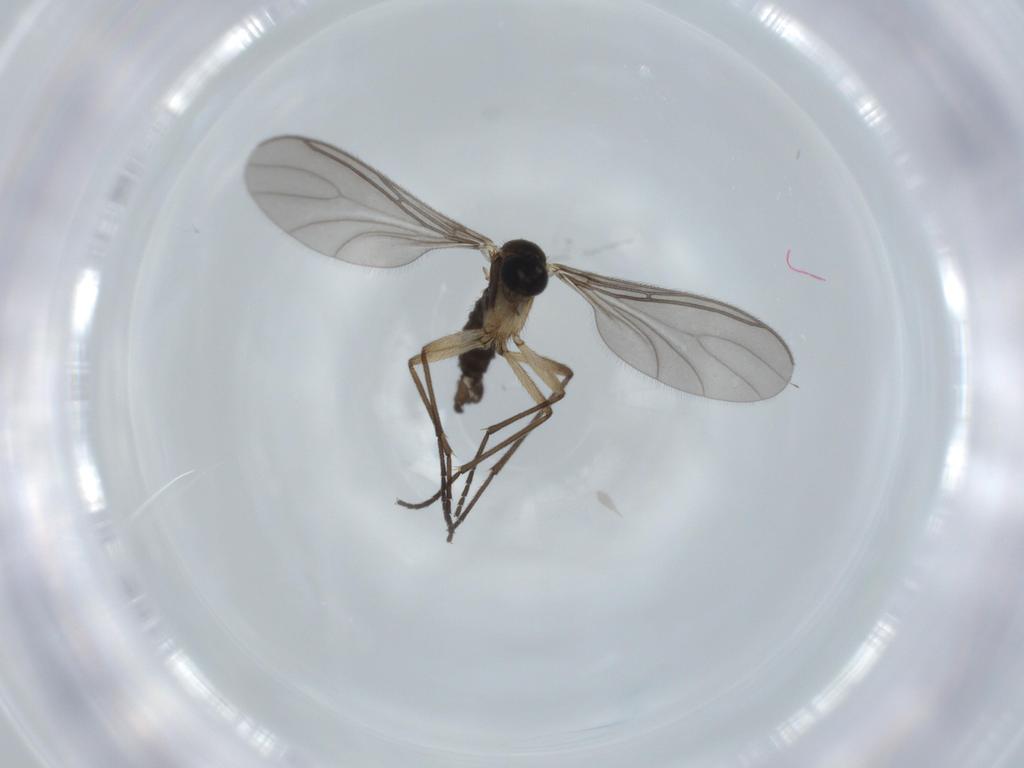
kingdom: Animalia
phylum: Arthropoda
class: Insecta
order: Diptera
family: Sciaridae
